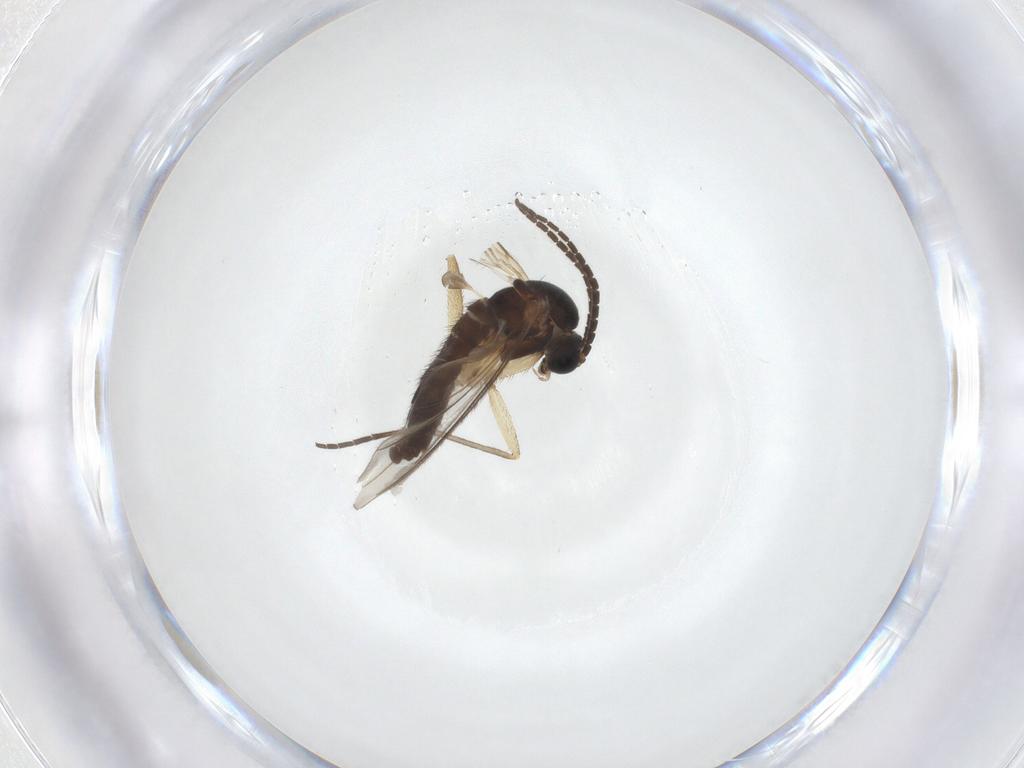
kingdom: Animalia
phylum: Arthropoda
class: Insecta
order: Diptera
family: Sciaridae
